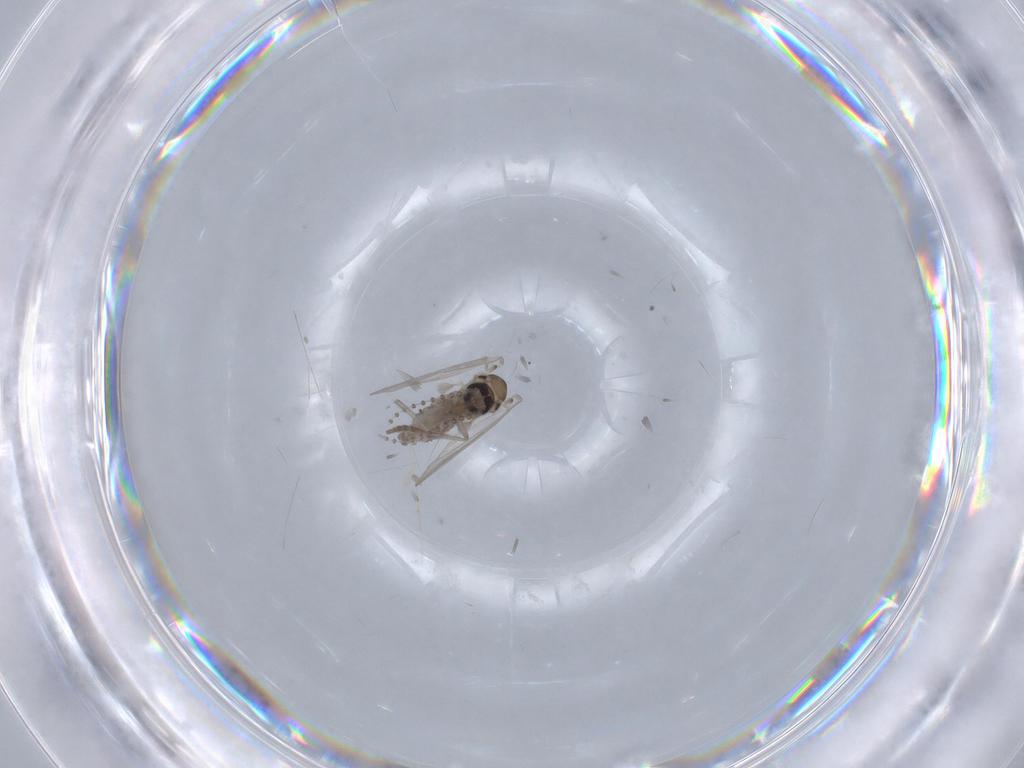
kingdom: Animalia
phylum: Arthropoda
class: Insecta
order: Diptera
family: Psychodidae
